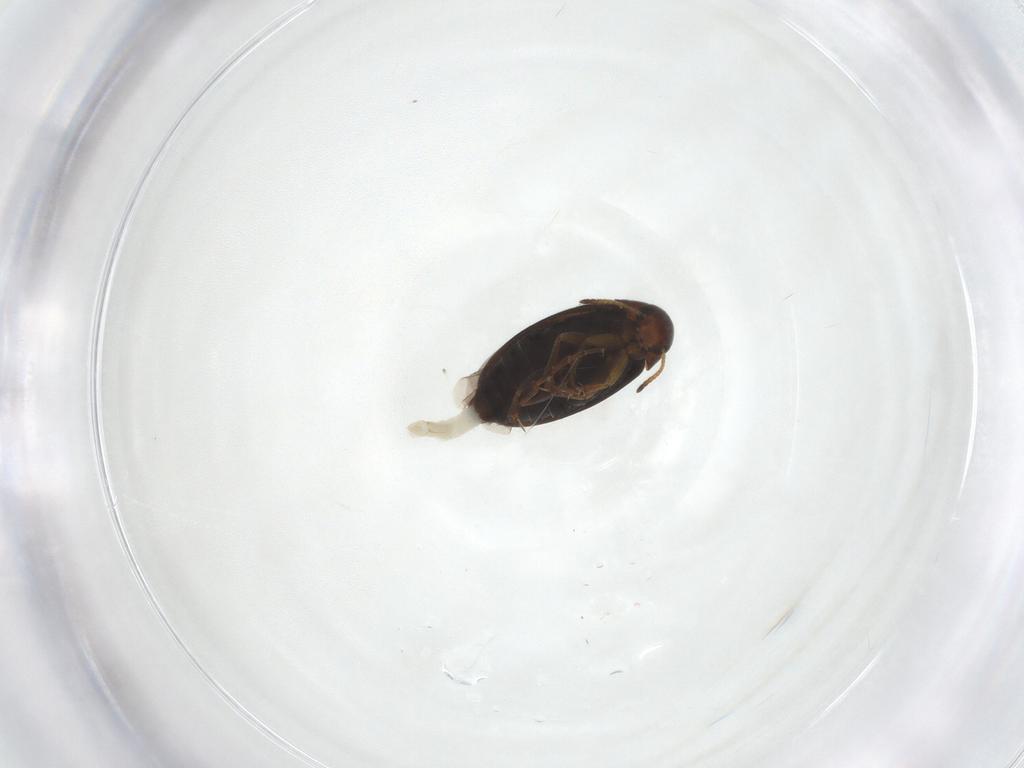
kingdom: Animalia
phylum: Arthropoda
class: Insecta
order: Coleoptera
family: Scraptiidae
